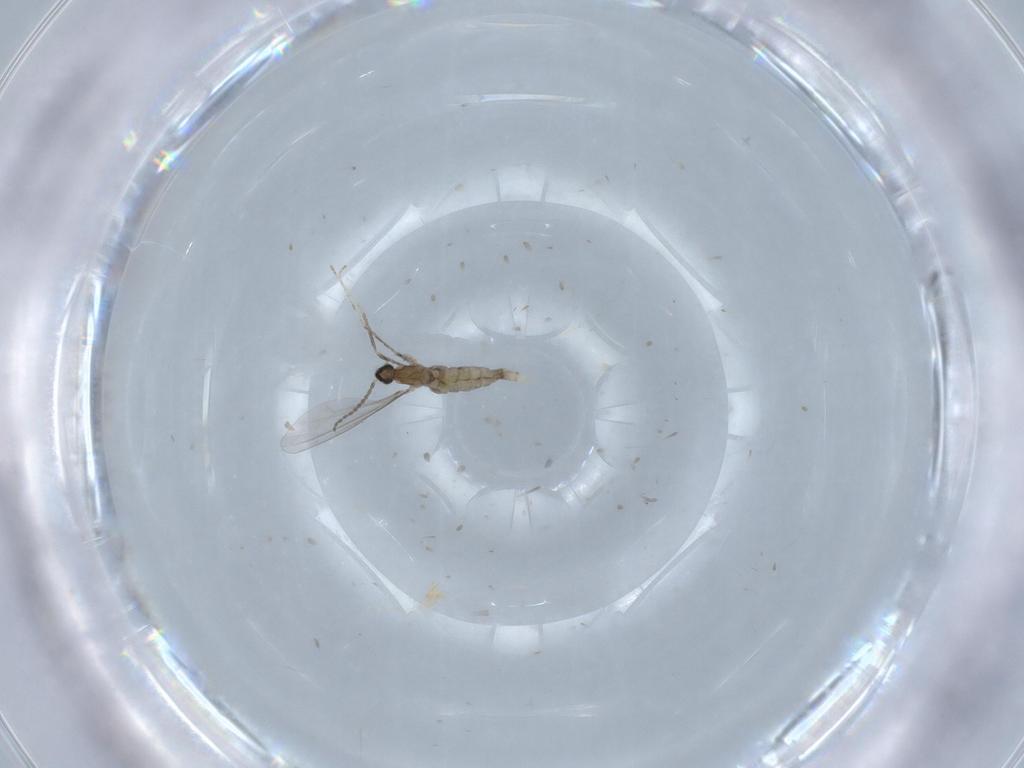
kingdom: Animalia
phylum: Arthropoda
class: Insecta
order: Diptera
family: Cecidomyiidae
